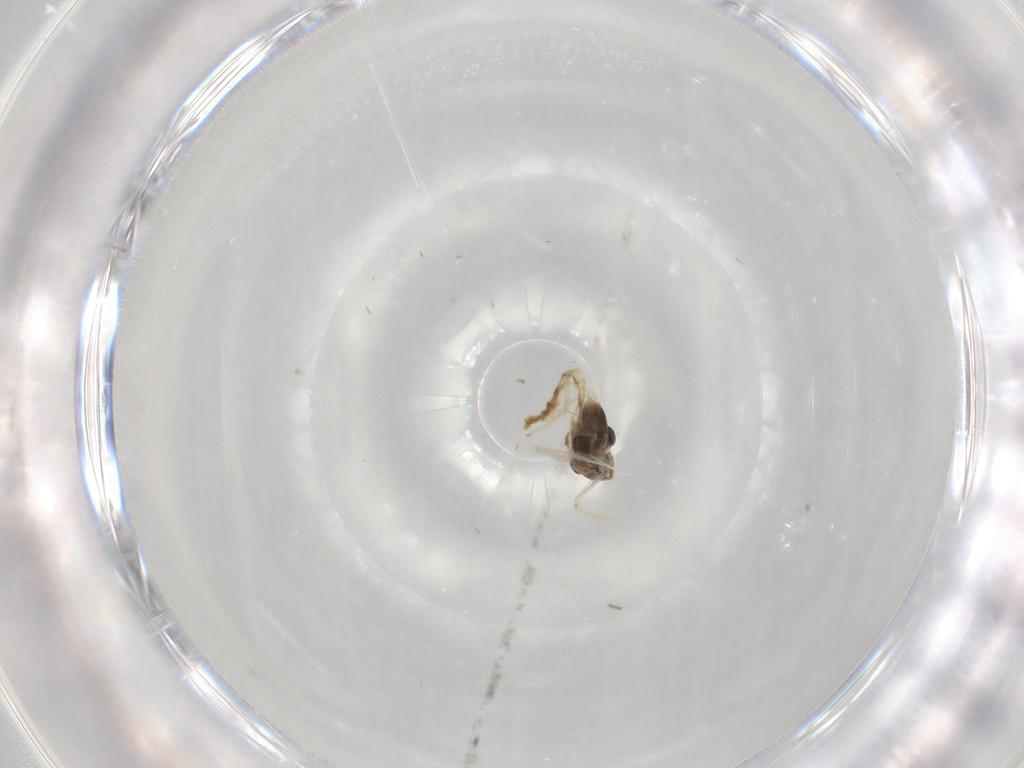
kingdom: Animalia
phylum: Arthropoda
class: Insecta
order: Diptera
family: Chironomidae
